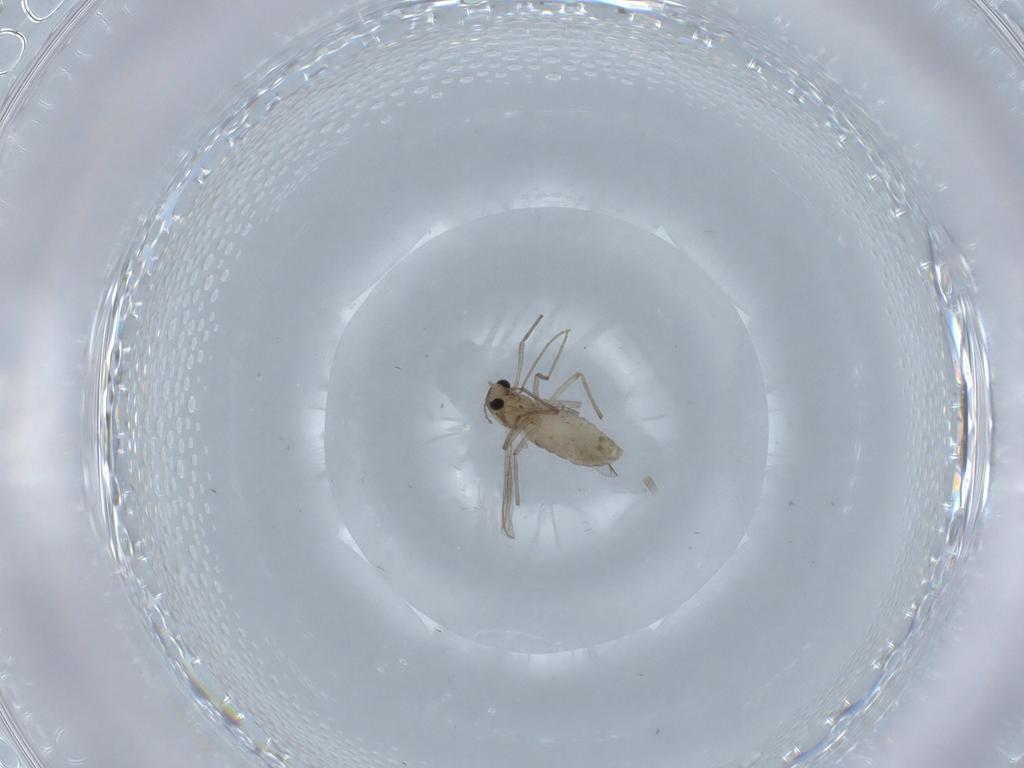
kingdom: Animalia
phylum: Arthropoda
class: Insecta
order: Diptera
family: Chironomidae
